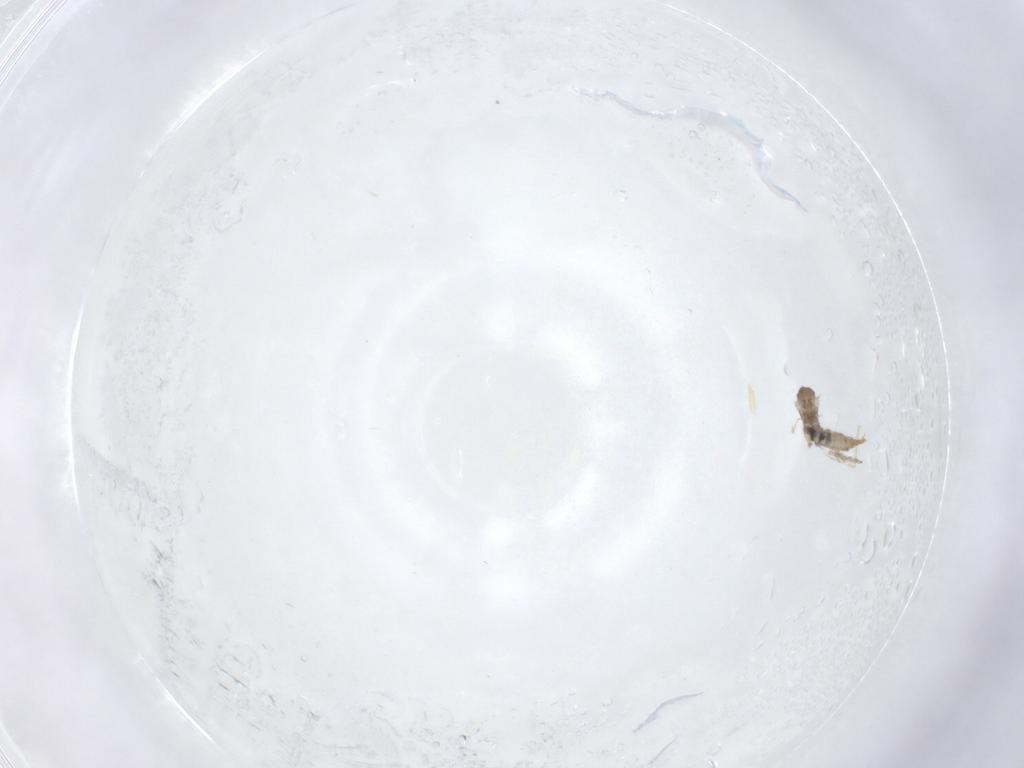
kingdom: Animalia
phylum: Arthropoda
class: Insecta
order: Diptera
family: Cecidomyiidae
